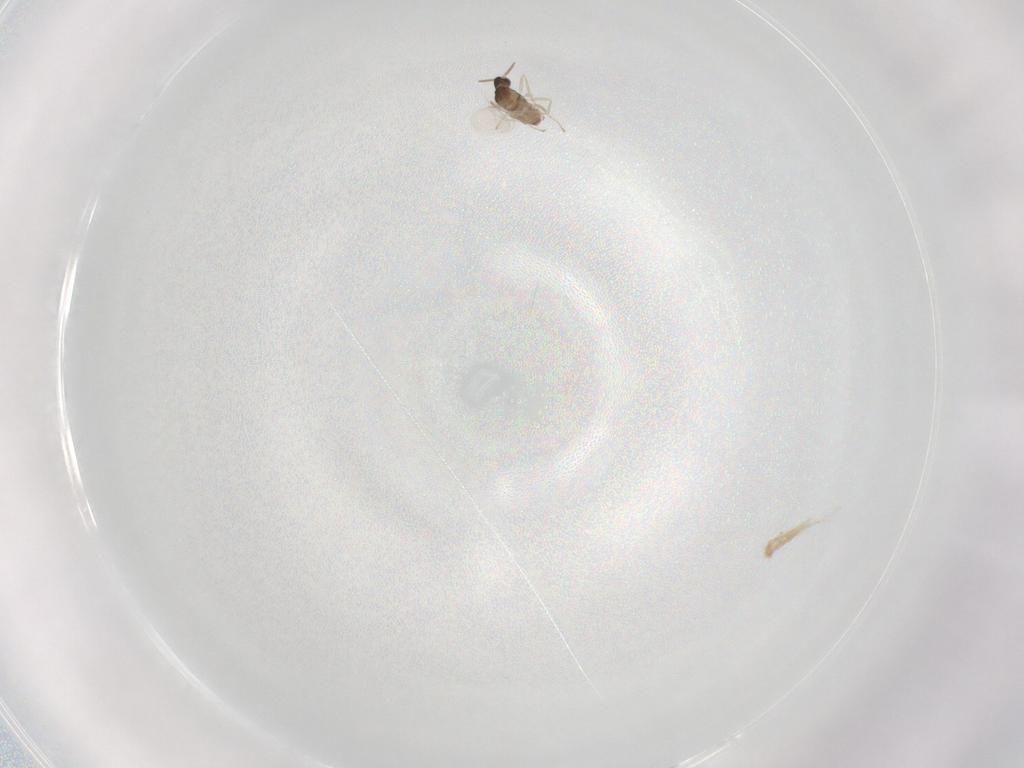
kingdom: Animalia
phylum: Arthropoda
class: Insecta
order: Diptera
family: Cecidomyiidae
